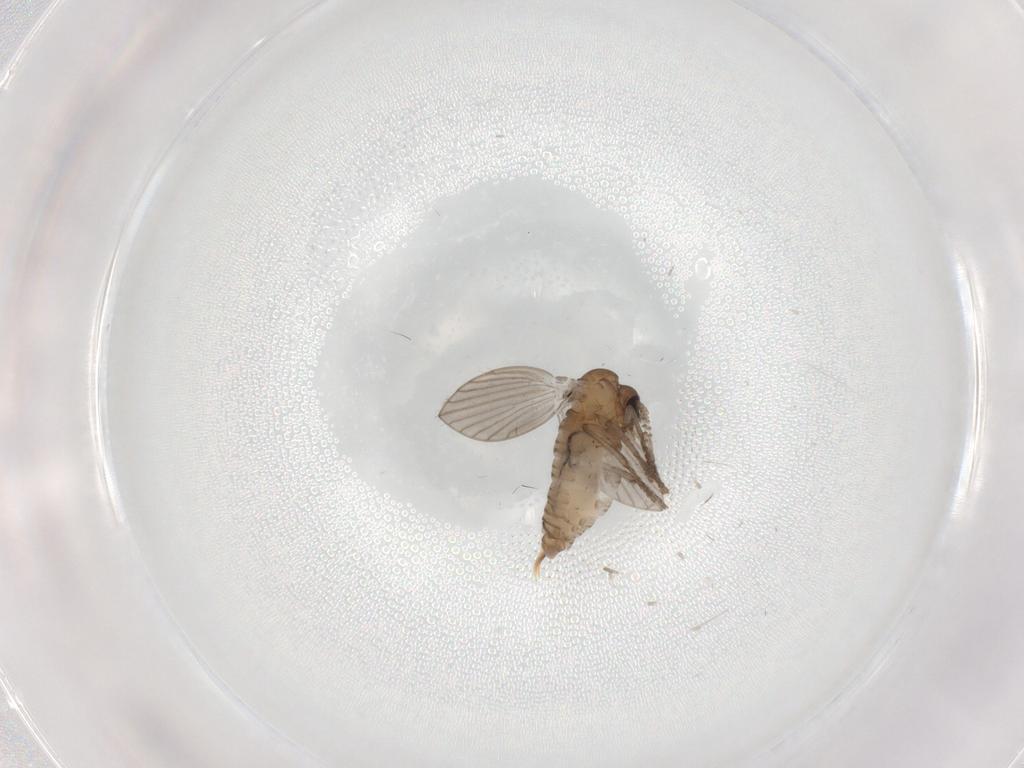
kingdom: Animalia
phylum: Arthropoda
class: Insecta
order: Diptera
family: Psychodidae
